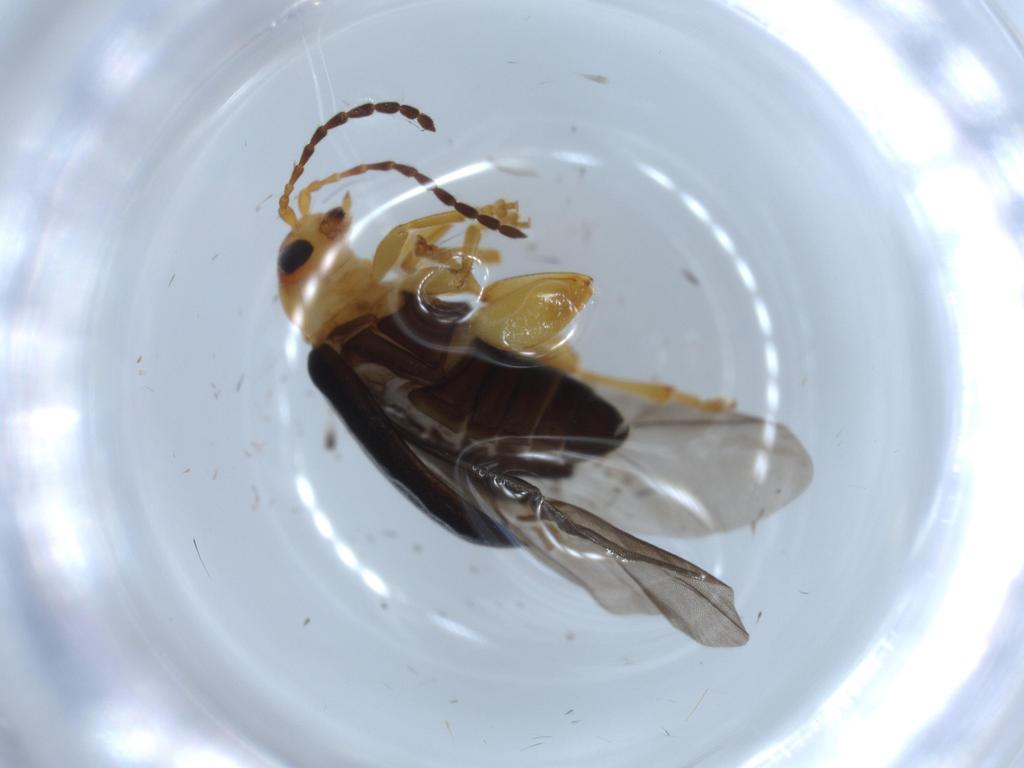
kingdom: Animalia
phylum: Arthropoda
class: Insecta
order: Coleoptera
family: Chrysomelidae
